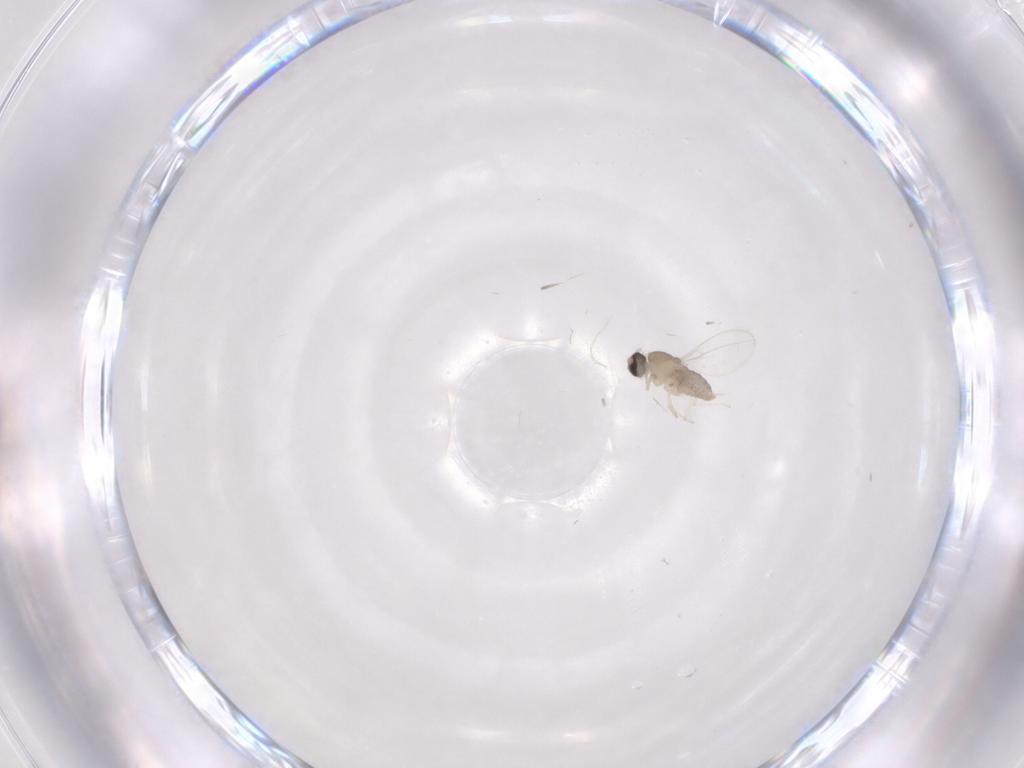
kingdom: Animalia
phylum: Arthropoda
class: Insecta
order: Diptera
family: Cecidomyiidae
